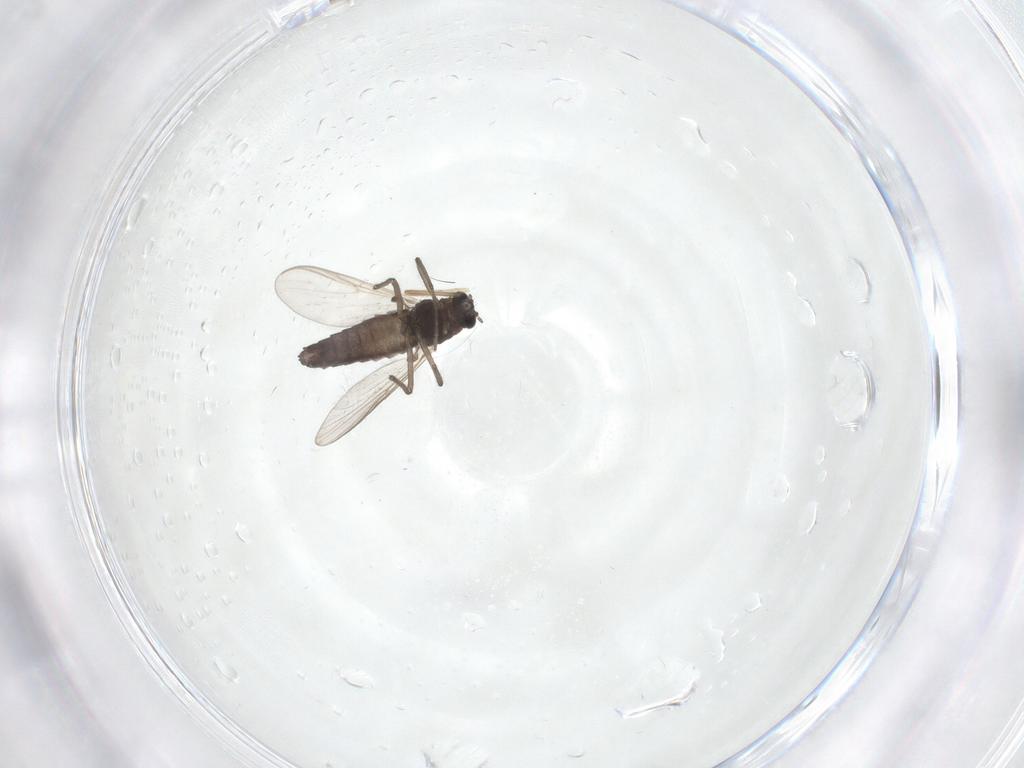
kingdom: Animalia
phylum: Arthropoda
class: Insecta
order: Diptera
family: Chironomidae
